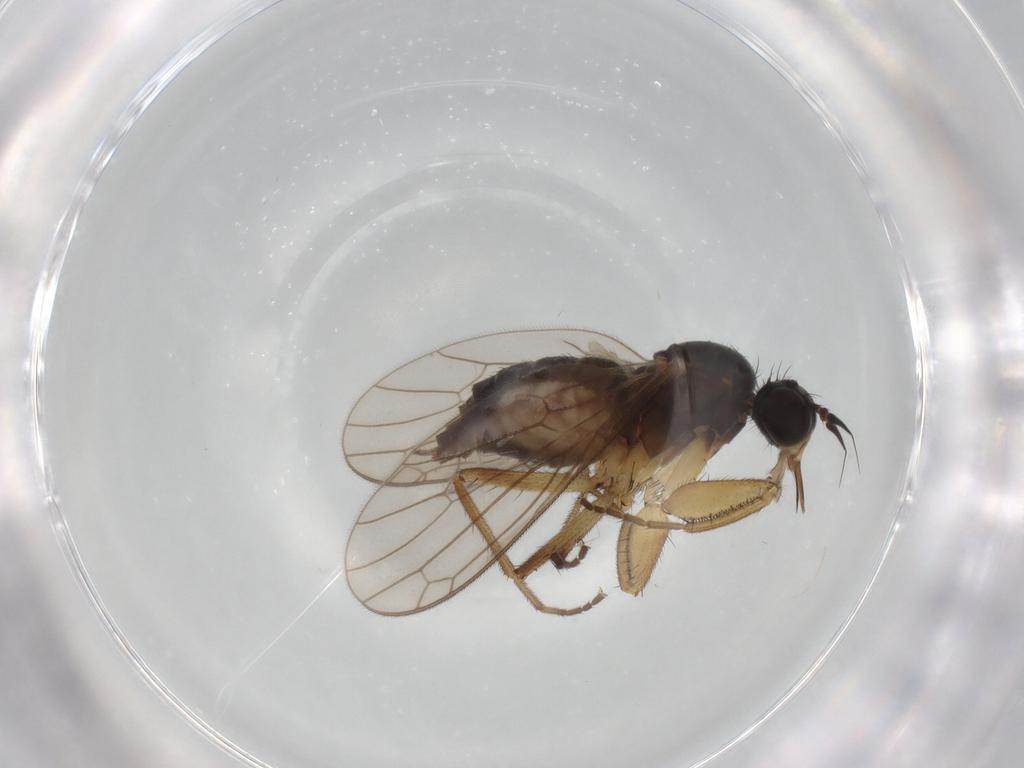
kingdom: Animalia
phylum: Arthropoda
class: Insecta
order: Diptera
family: Empididae
